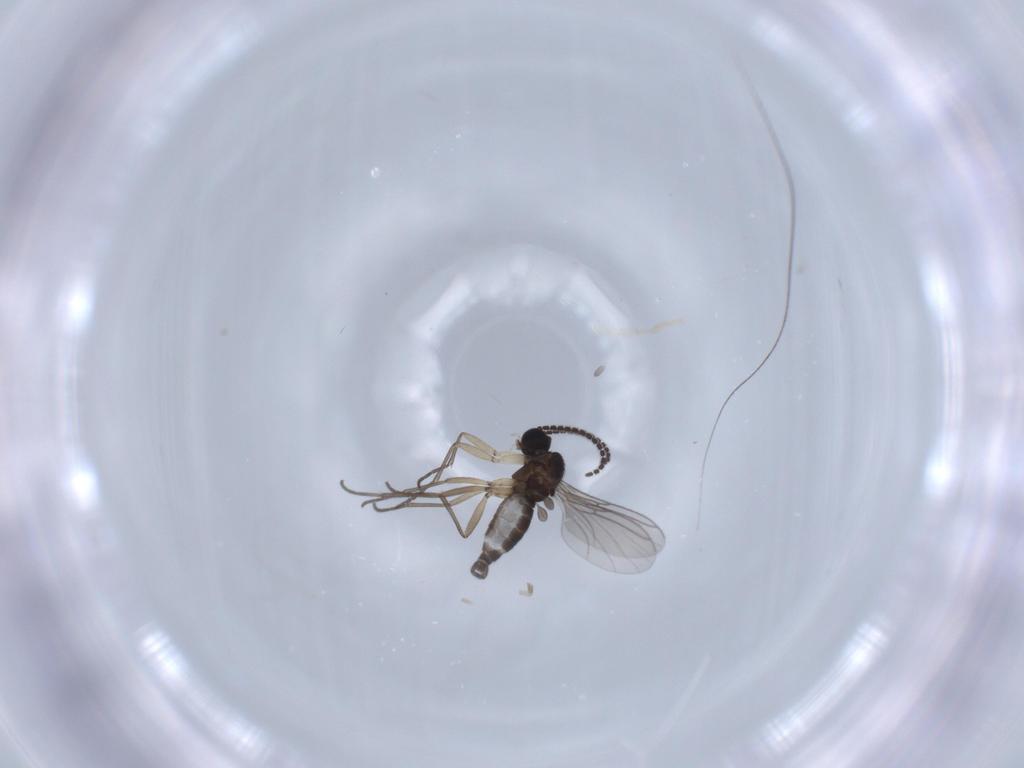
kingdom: Animalia
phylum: Arthropoda
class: Insecta
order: Diptera
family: Sciaridae
